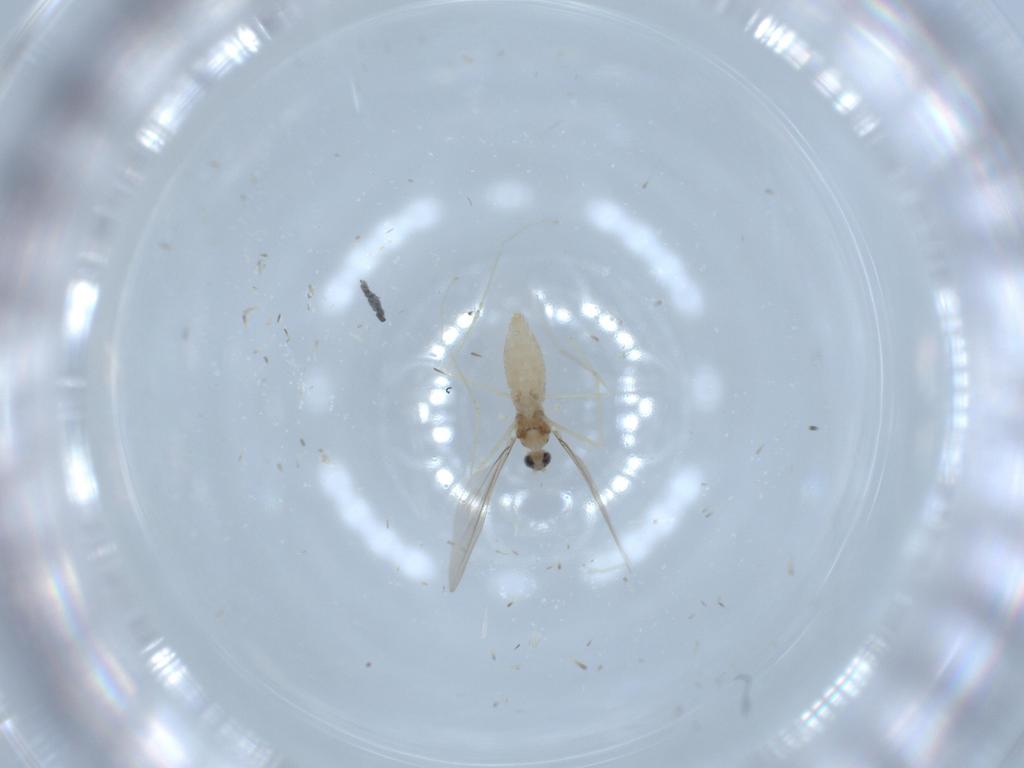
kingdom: Animalia
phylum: Arthropoda
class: Insecta
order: Diptera
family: Cecidomyiidae
